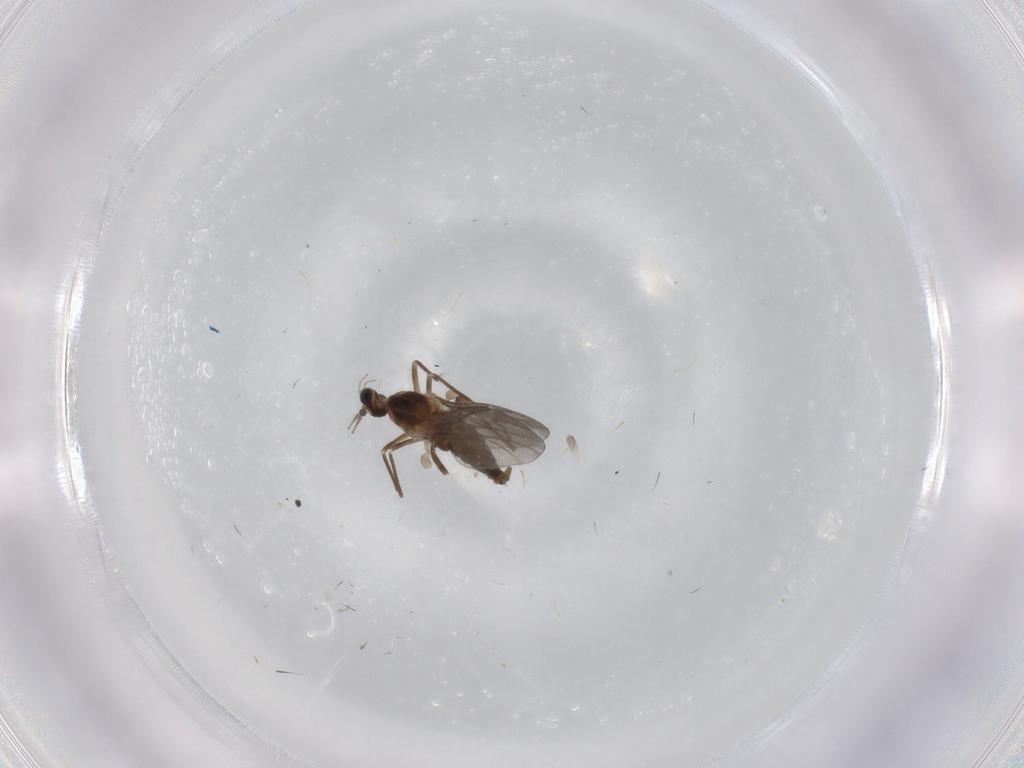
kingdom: Animalia
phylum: Arthropoda
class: Insecta
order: Diptera
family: Cecidomyiidae
